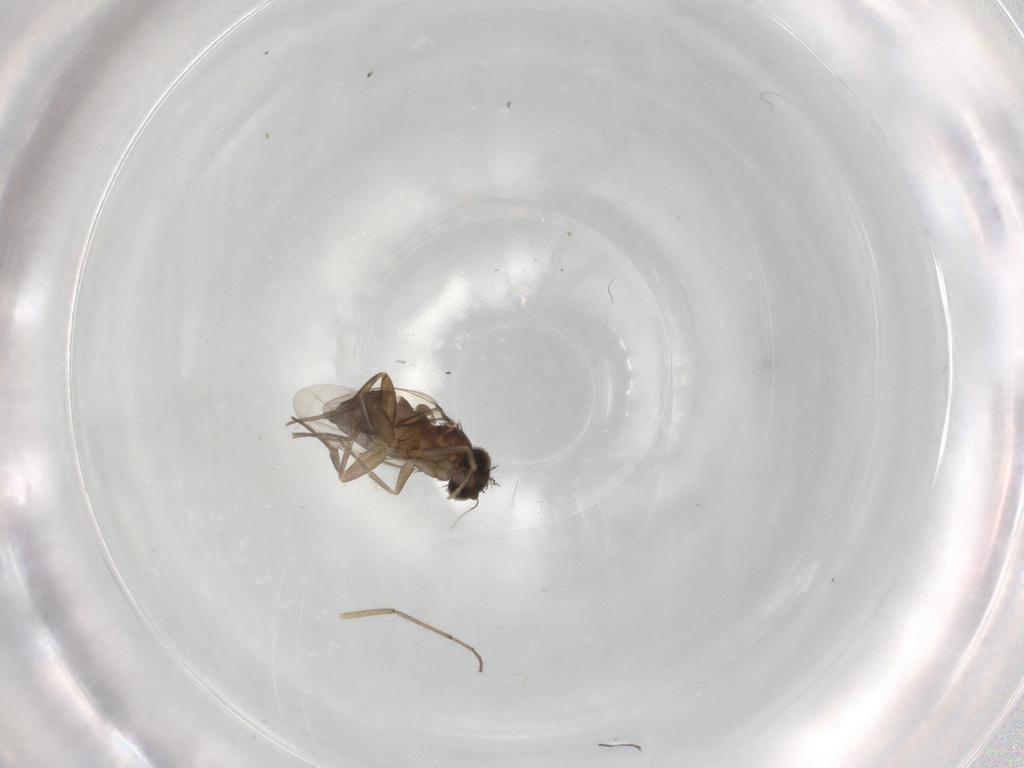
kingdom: Animalia
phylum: Arthropoda
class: Insecta
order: Diptera
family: Phoridae
